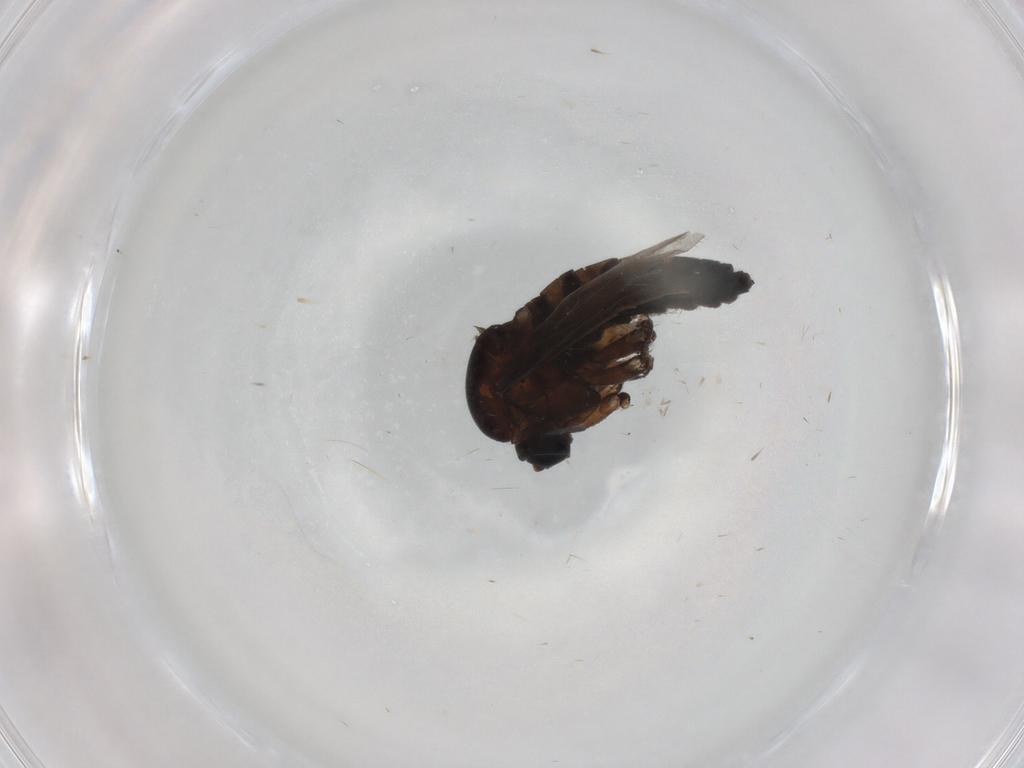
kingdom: Animalia
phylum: Arthropoda
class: Insecta
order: Diptera
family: Sciaridae
